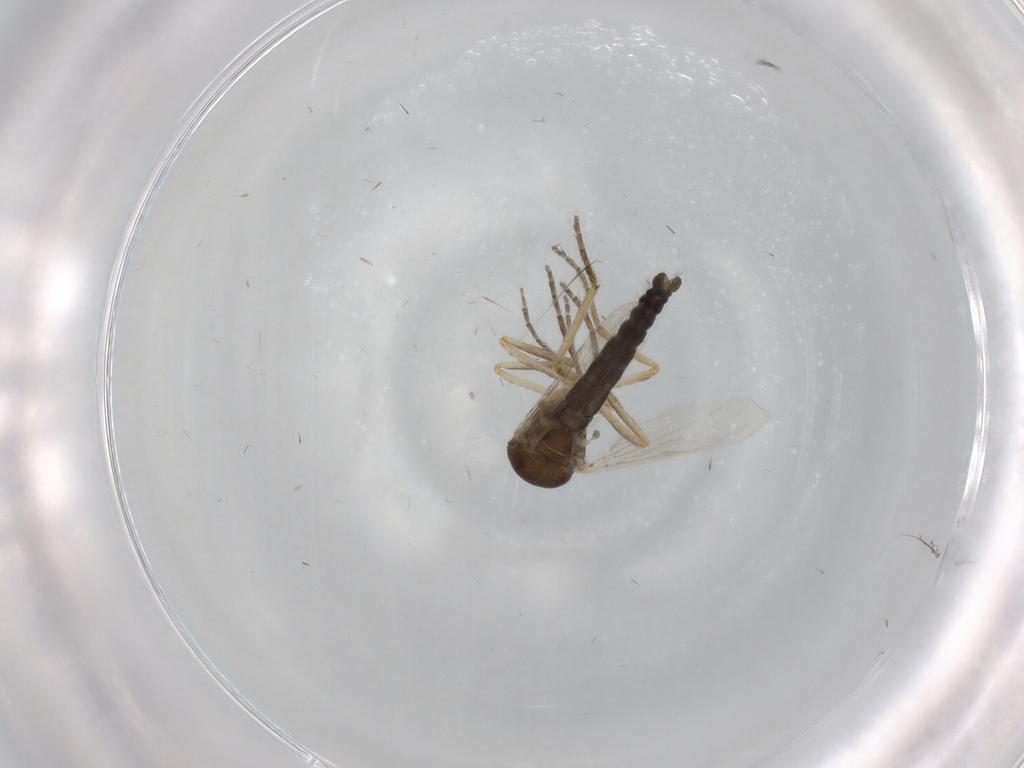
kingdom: Animalia
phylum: Arthropoda
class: Insecta
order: Diptera
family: Ceratopogonidae
